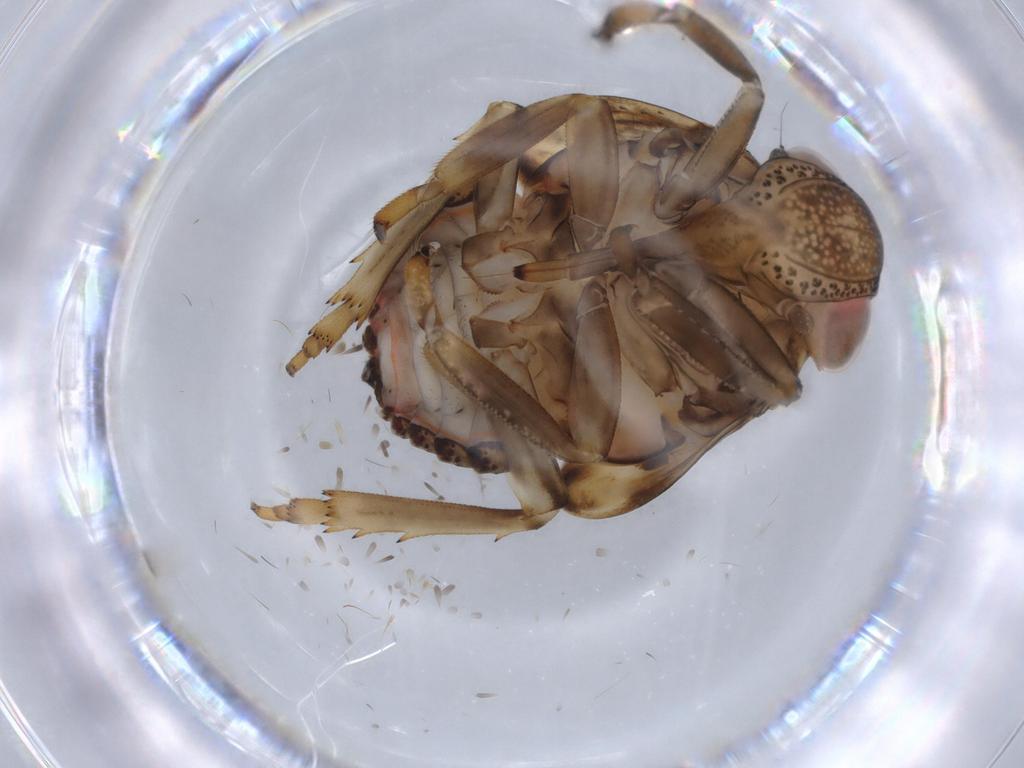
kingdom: Animalia
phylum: Arthropoda
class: Insecta
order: Hemiptera
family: Issidae
